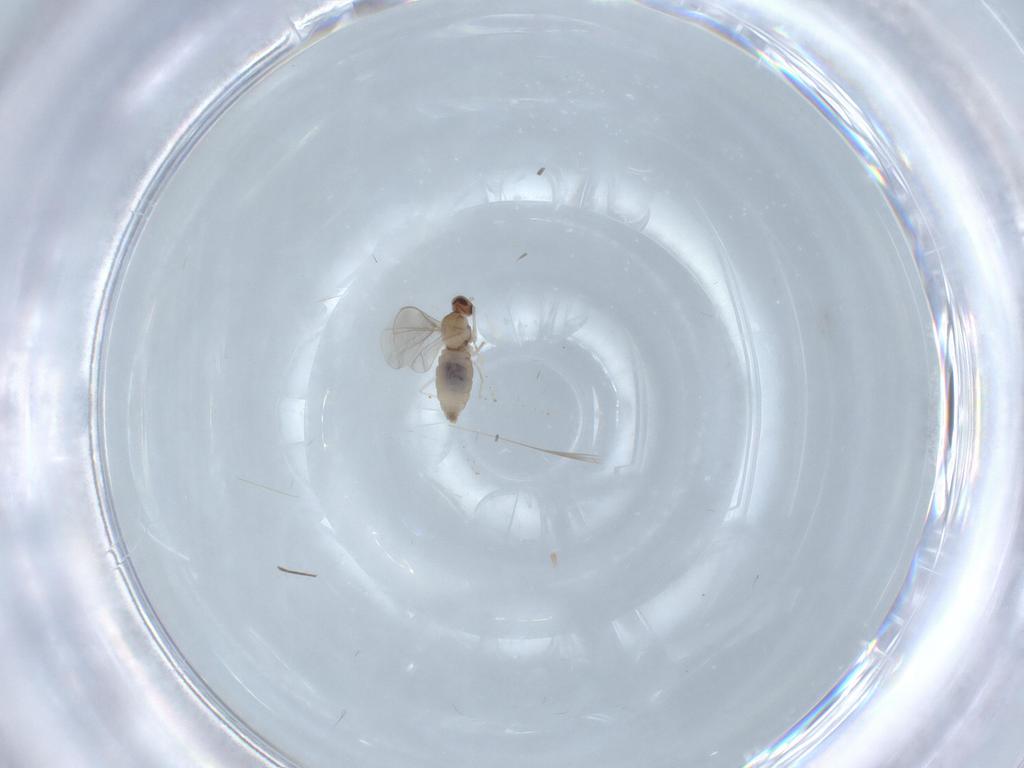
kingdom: Animalia
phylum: Arthropoda
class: Insecta
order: Diptera
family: Cecidomyiidae
